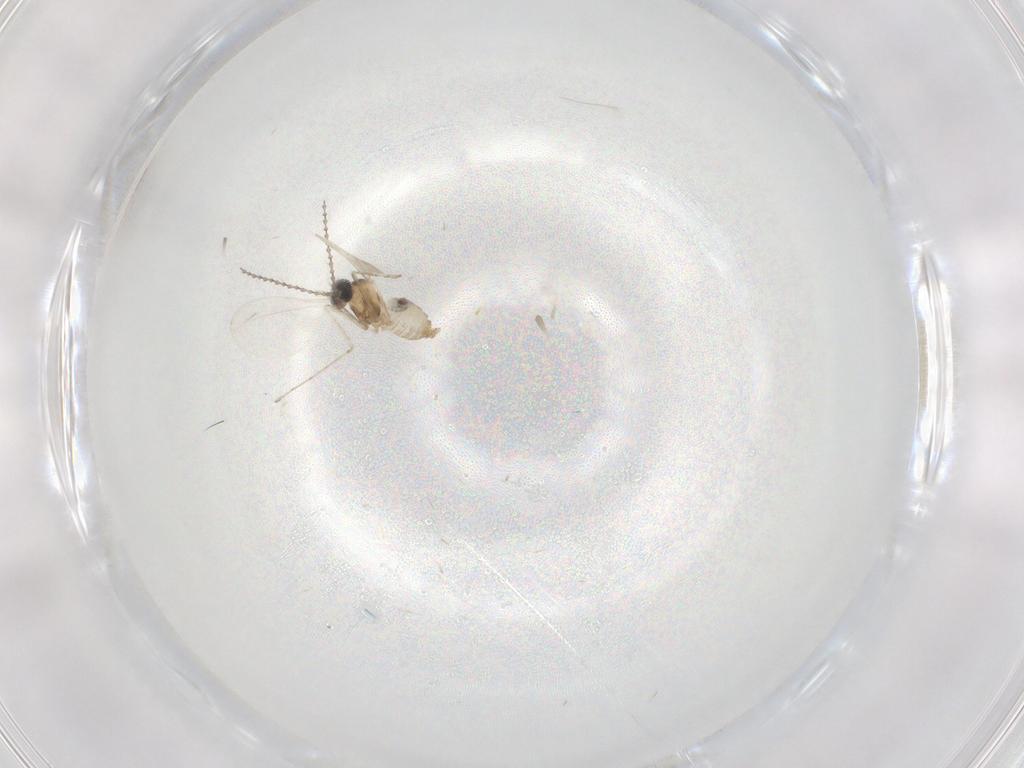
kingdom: Animalia
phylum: Arthropoda
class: Insecta
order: Diptera
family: Cecidomyiidae
